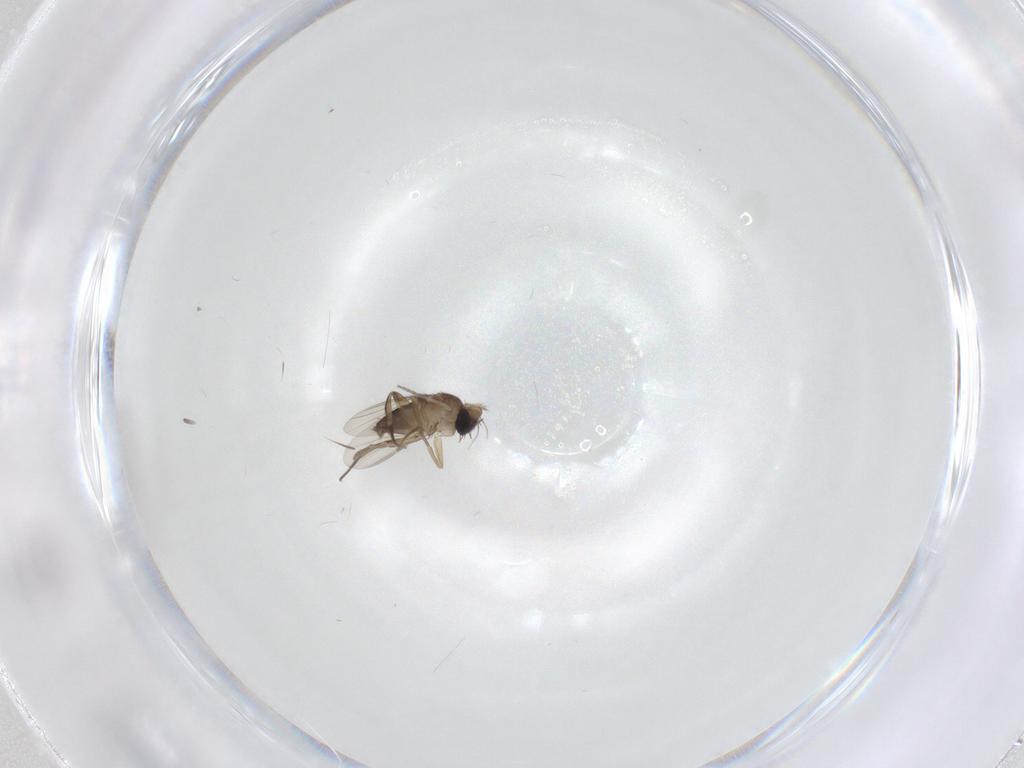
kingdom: Animalia
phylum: Arthropoda
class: Insecta
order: Diptera
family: Phoridae
